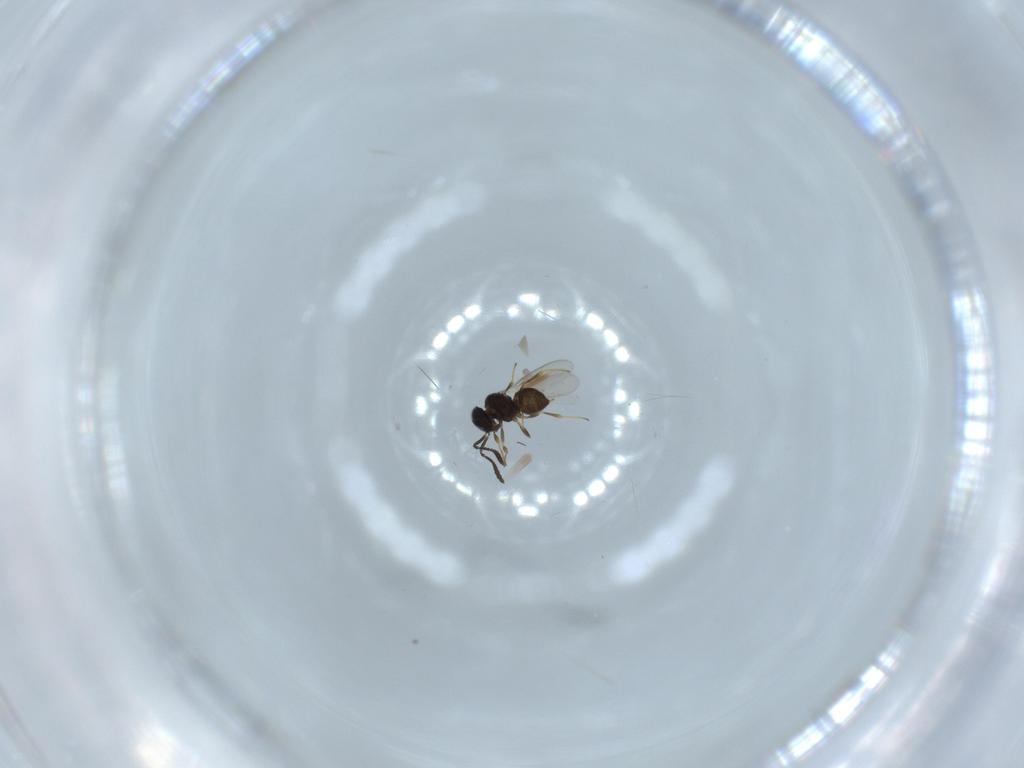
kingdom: Animalia
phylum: Arthropoda
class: Insecta
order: Hymenoptera
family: Scelionidae
